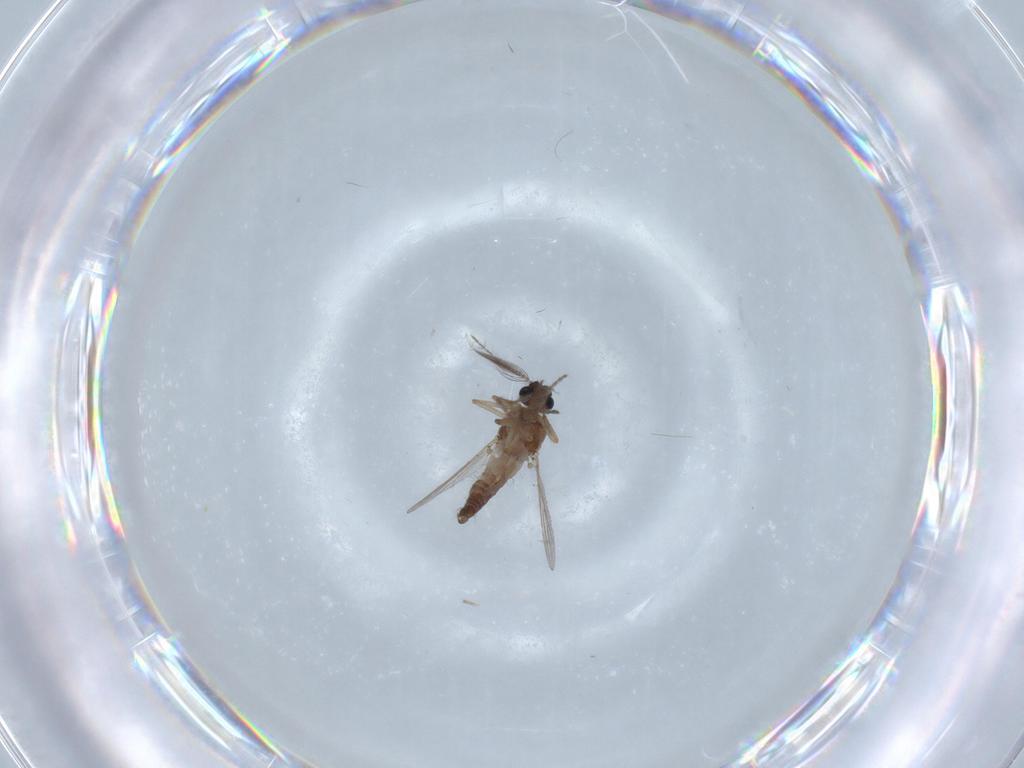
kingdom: Animalia
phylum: Arthropoda
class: Insecta
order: Diptera
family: Ceratopogonidae
